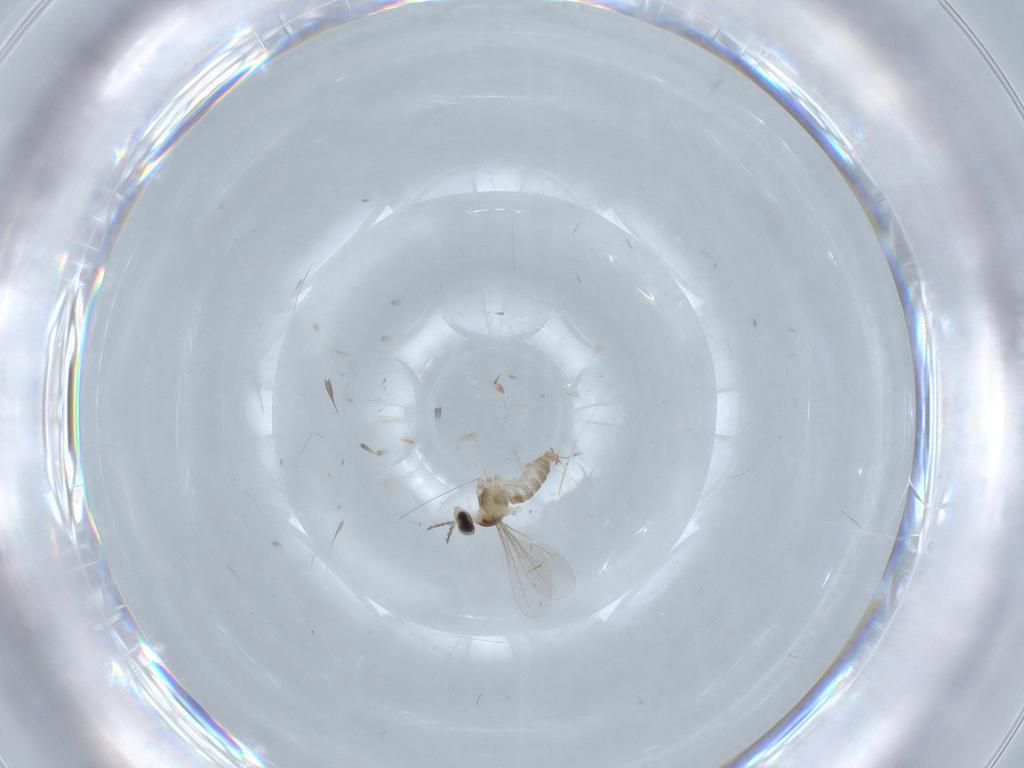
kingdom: Animalia
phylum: Arthropoda
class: Insecta
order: Diptera
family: Cecidomyiidae
